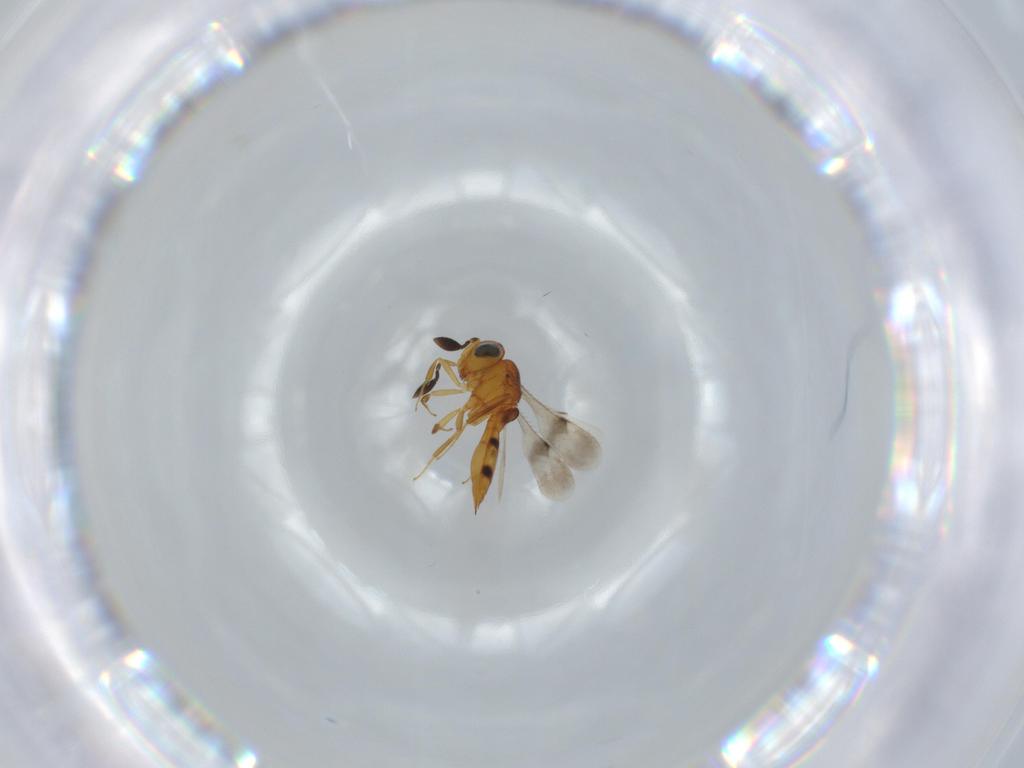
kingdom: Animalia
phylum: Arthropoda
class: Insecta
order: Hymenoptera
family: Scelionidae
